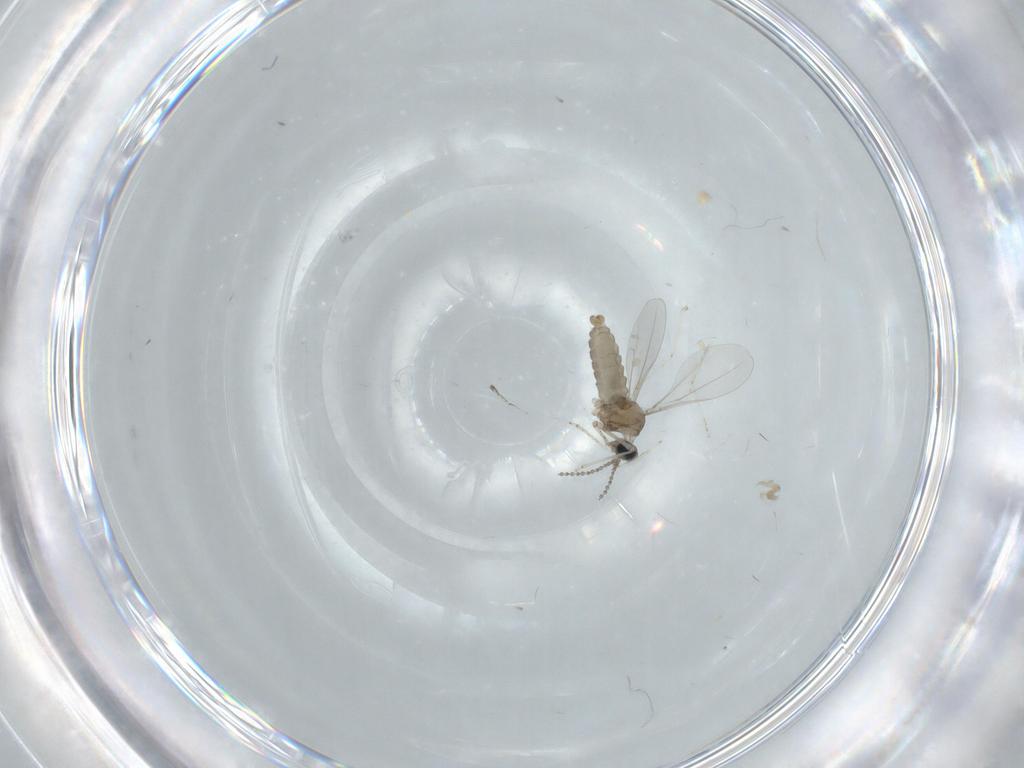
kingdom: Animalia
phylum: Arthropoda
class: Insecta
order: Diptera
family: Cecidomyiidae
